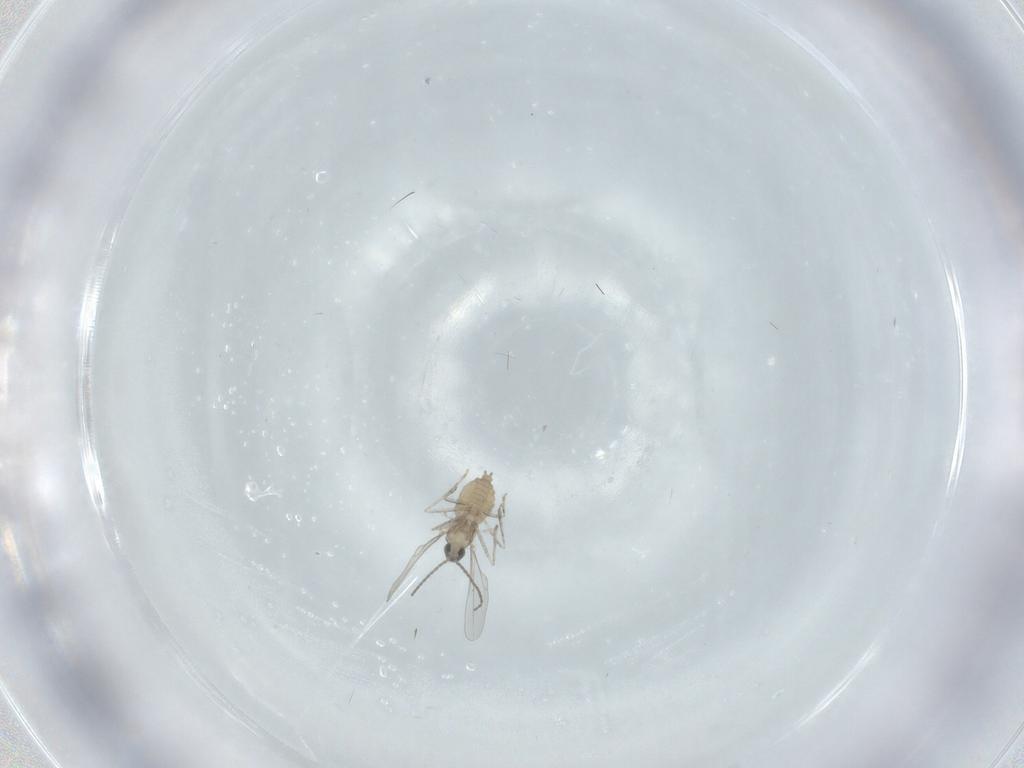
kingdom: Animalia
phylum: Arthropoda
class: Insecta
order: Diptera
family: Cecidomyiidae
